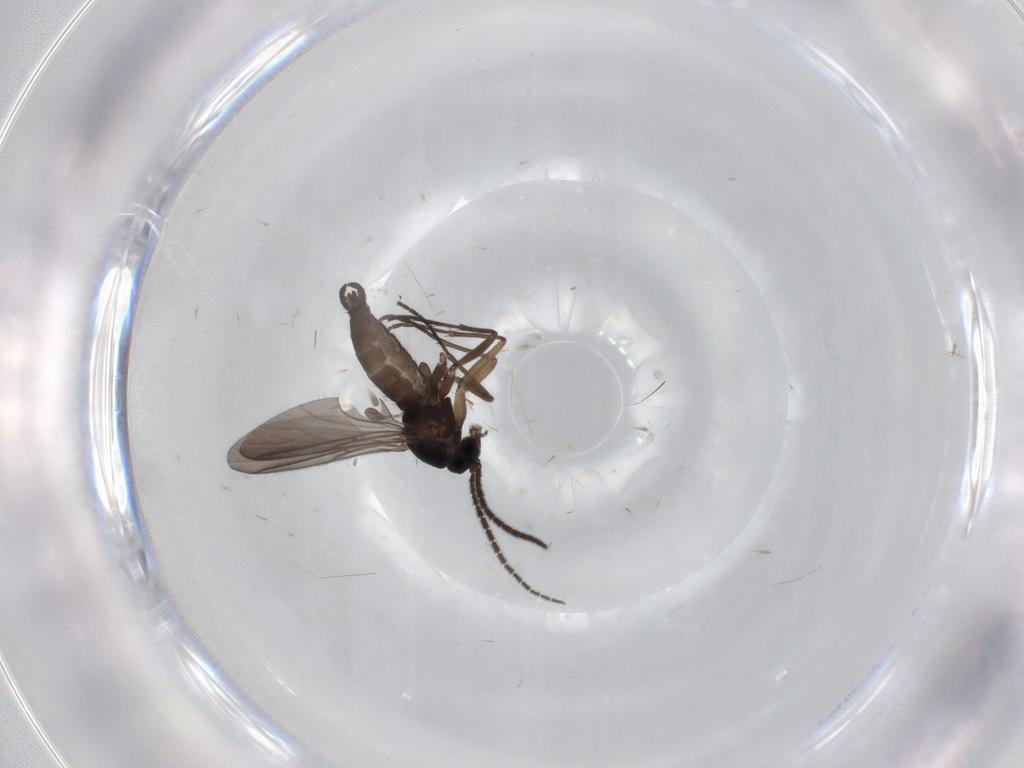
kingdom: Animalia
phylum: Arthropoda
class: Insecta
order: Diptera
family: Sciaridae
